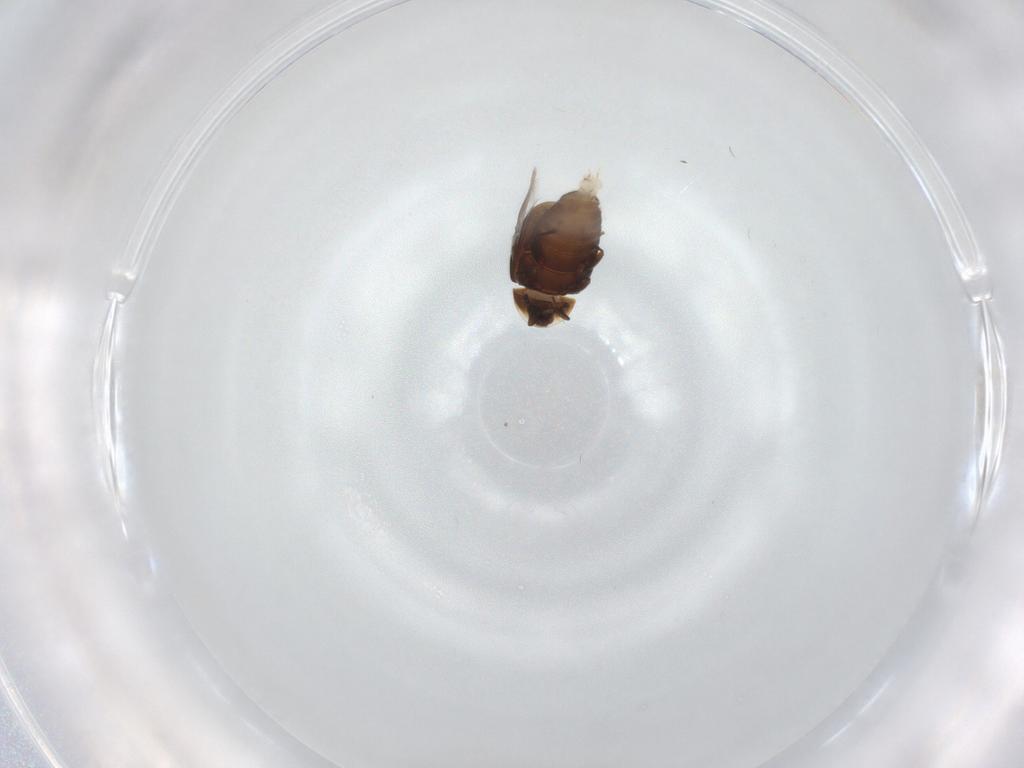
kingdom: Animalia
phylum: Arthropoda
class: Insecta
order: Coleoptera
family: Corylophidae
